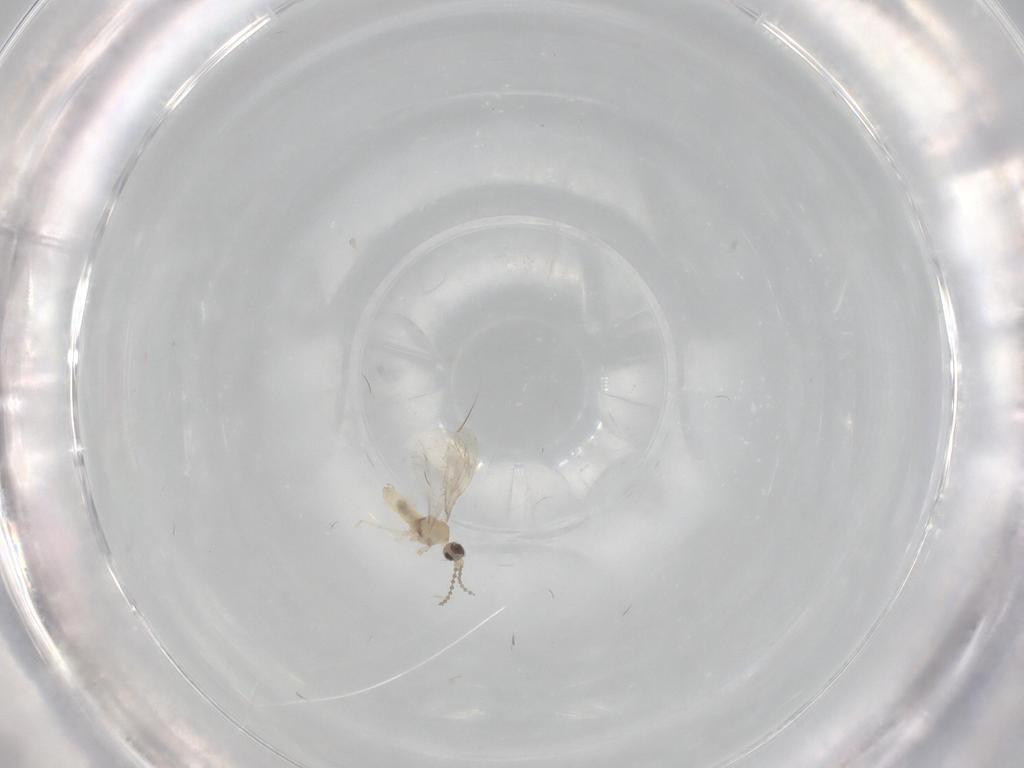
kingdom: Animalia
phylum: Arthropoda
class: Insecta
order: Diptera
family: Cecidomyiidae
